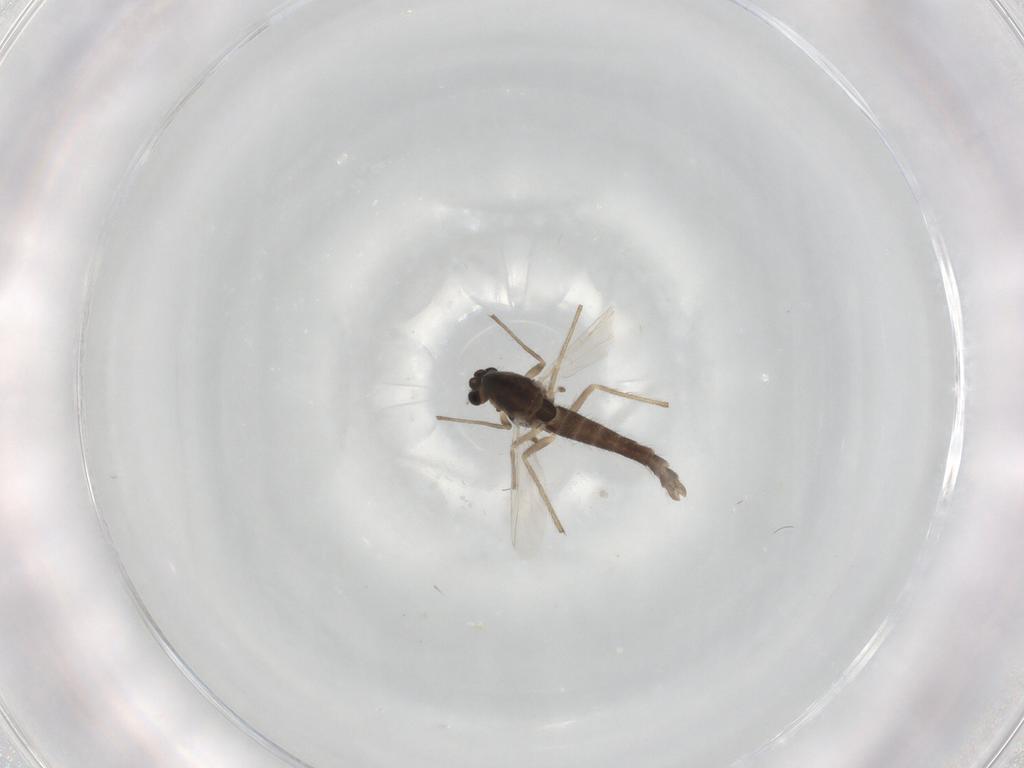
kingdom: Animalia
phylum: Arthropoda
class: Insecta
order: Diptera
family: Chironomidae
